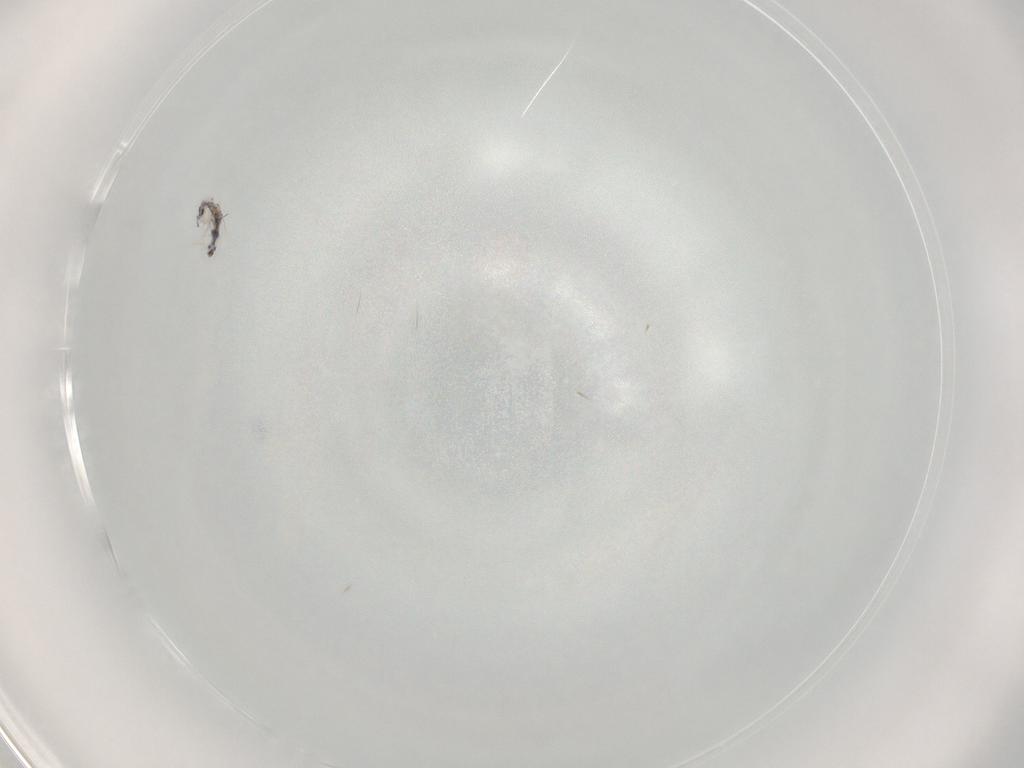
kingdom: Animalia
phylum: Arthropoda
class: Collembola
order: Entomobryomorpha
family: Entomobryidae
